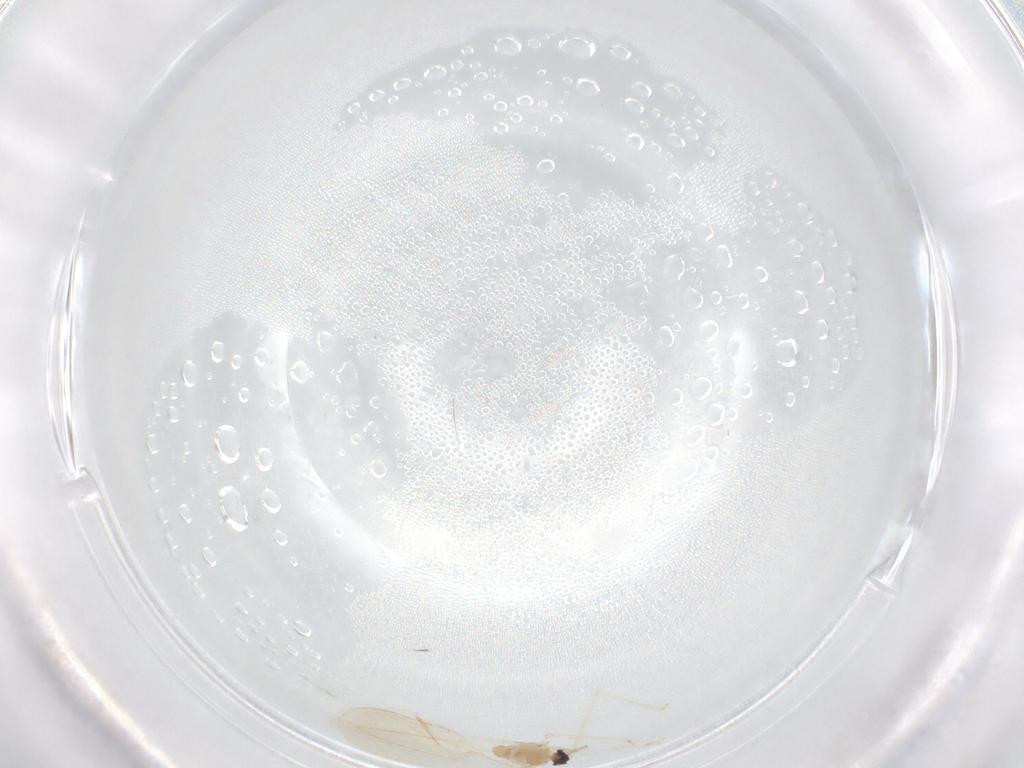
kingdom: Animalia
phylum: Arthropoda
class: Insecta
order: Diptera
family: Cecidomyiidae
